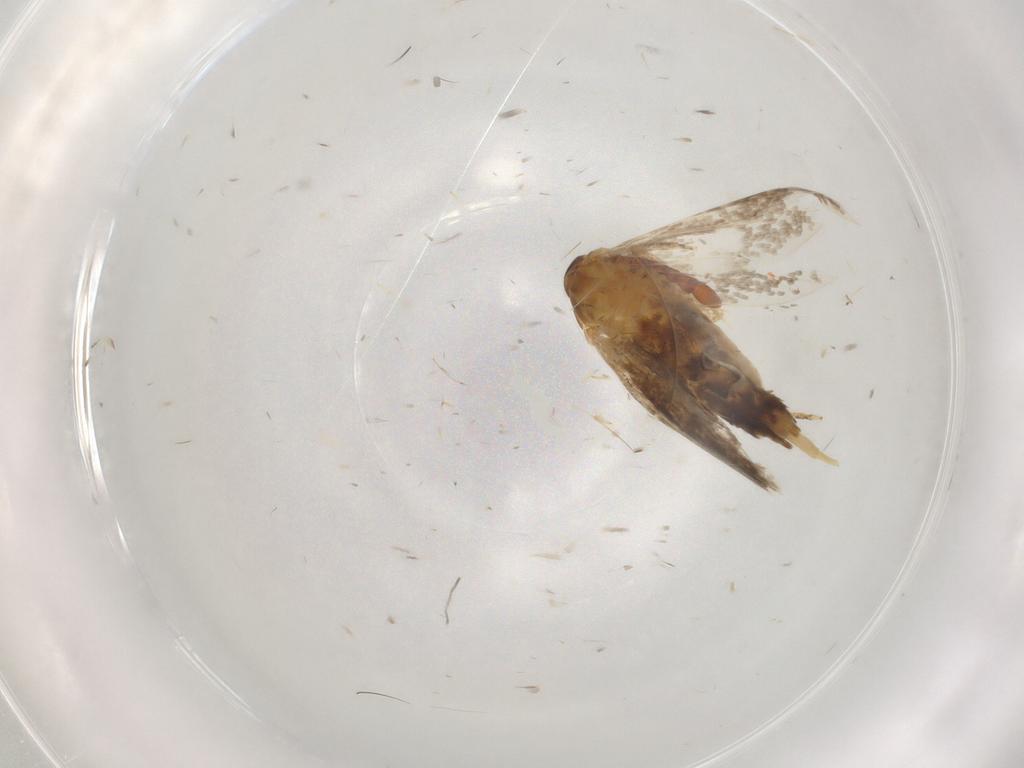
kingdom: Animalia
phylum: Arthropoda
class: Insecta
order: Lepidoptera
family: Oecophoridae
